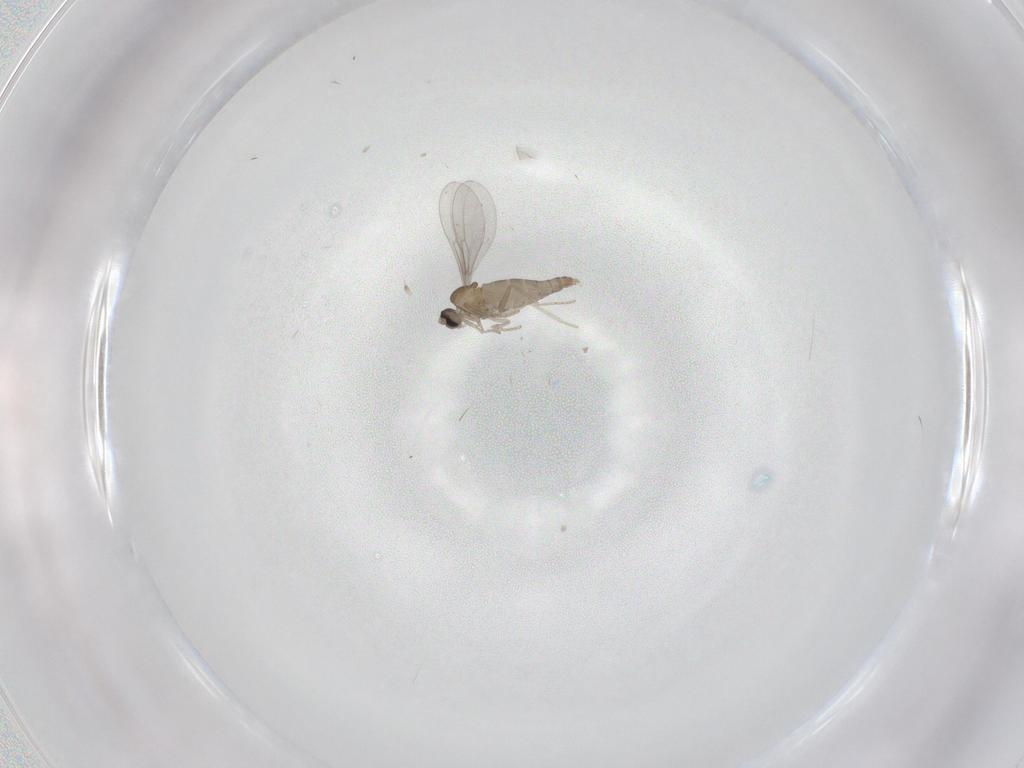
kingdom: Animalia
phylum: Arthropoda
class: Insecta
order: Diptera
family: Cecidomyiidae
